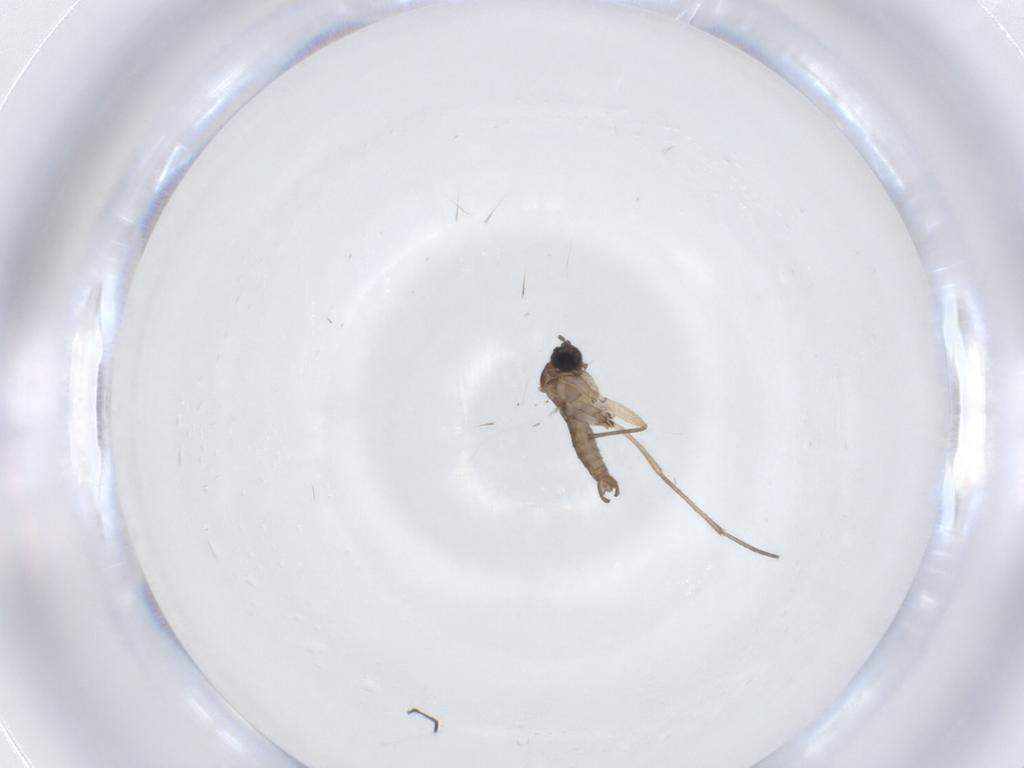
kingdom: Animalia
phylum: Arthropoda
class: Insecta
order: Diptera
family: Sciaridae
